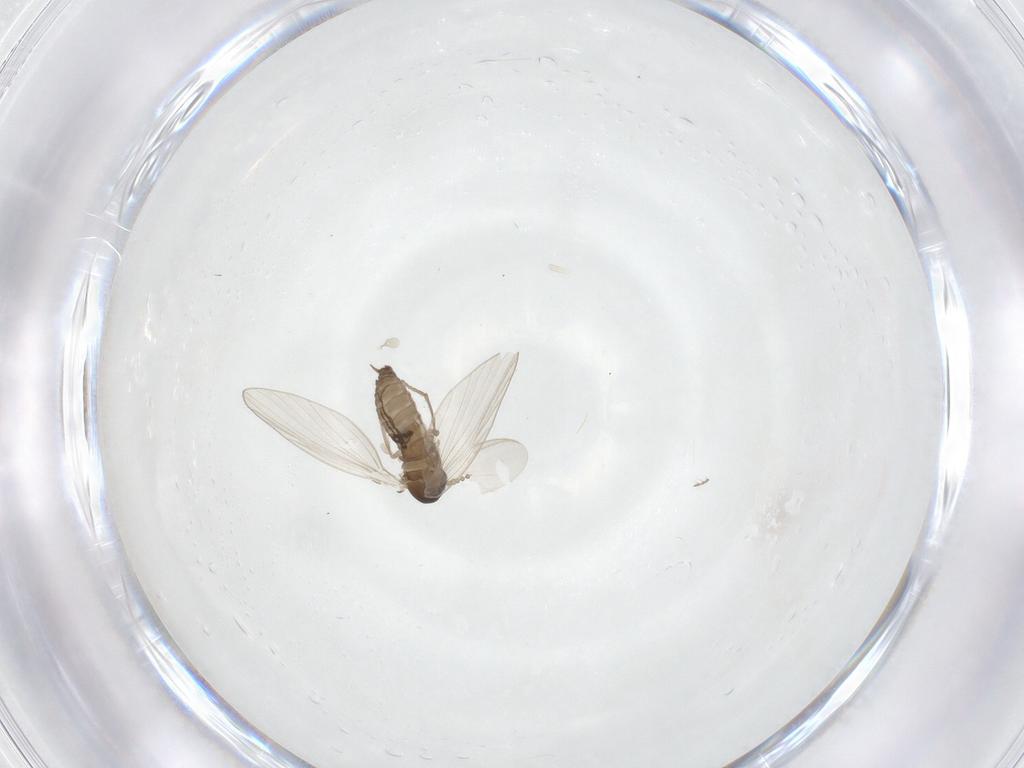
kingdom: Animalia
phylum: Arthropoda
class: Insecta
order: Diptera
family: Psychodidae
